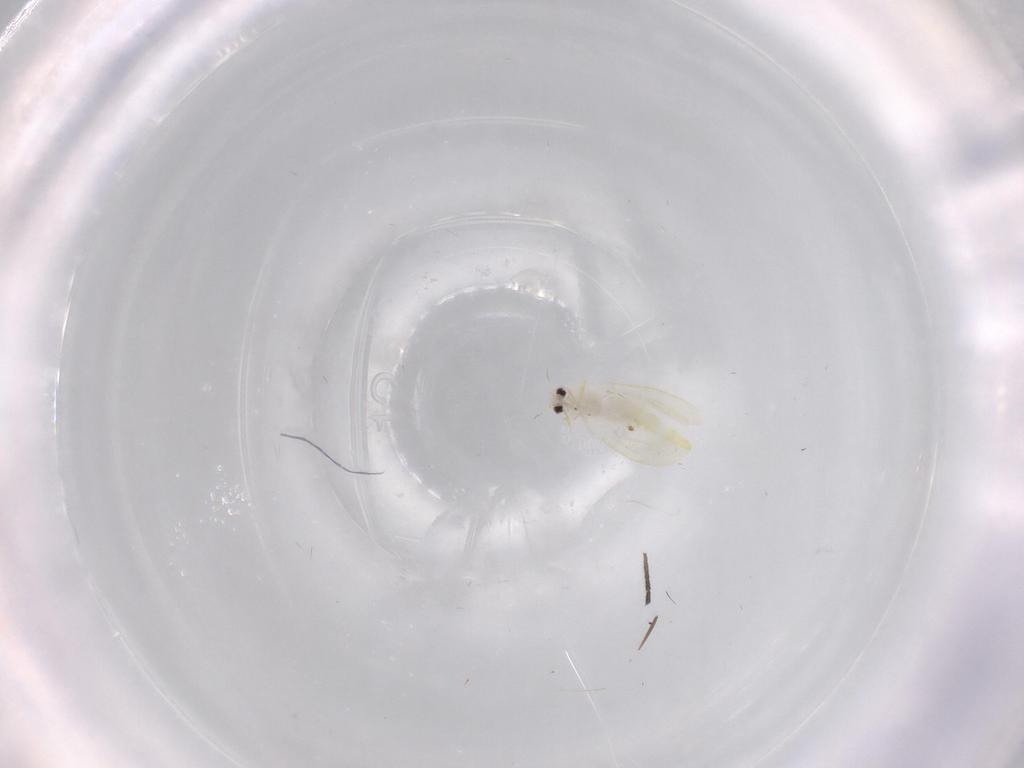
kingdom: Animalia
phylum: Arthropoda
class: Insecta
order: Diptera
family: Sciaridae
